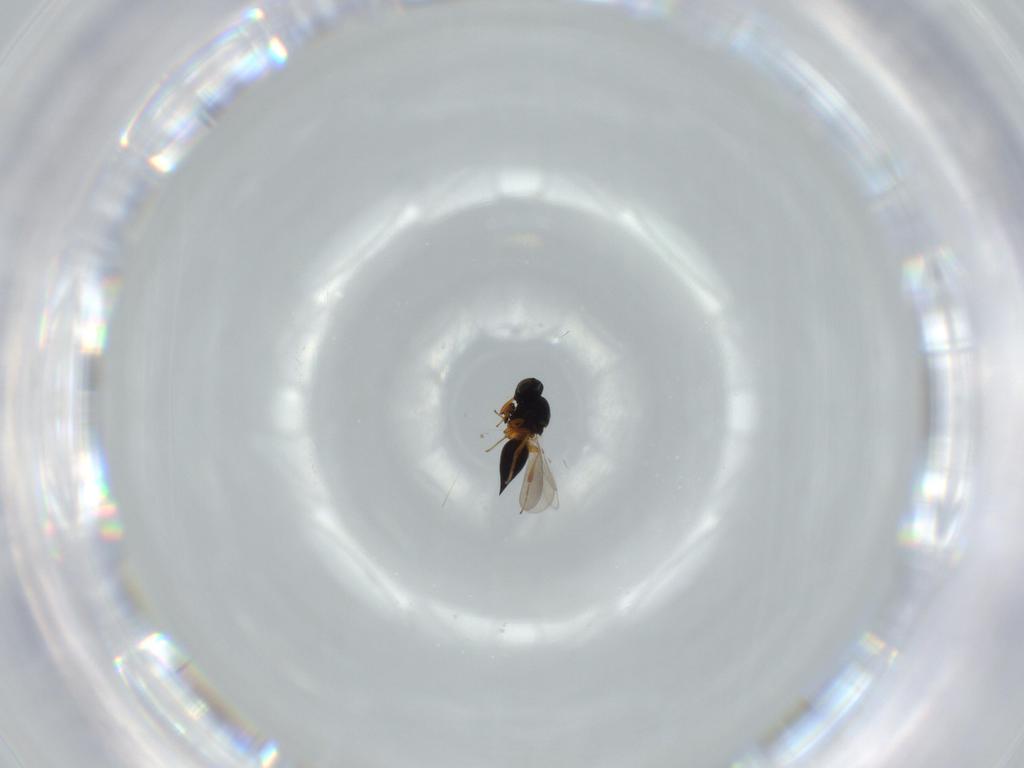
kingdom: Animalia
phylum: Arthropoda
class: Insecta
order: Hymenoptera
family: Platygastridae
